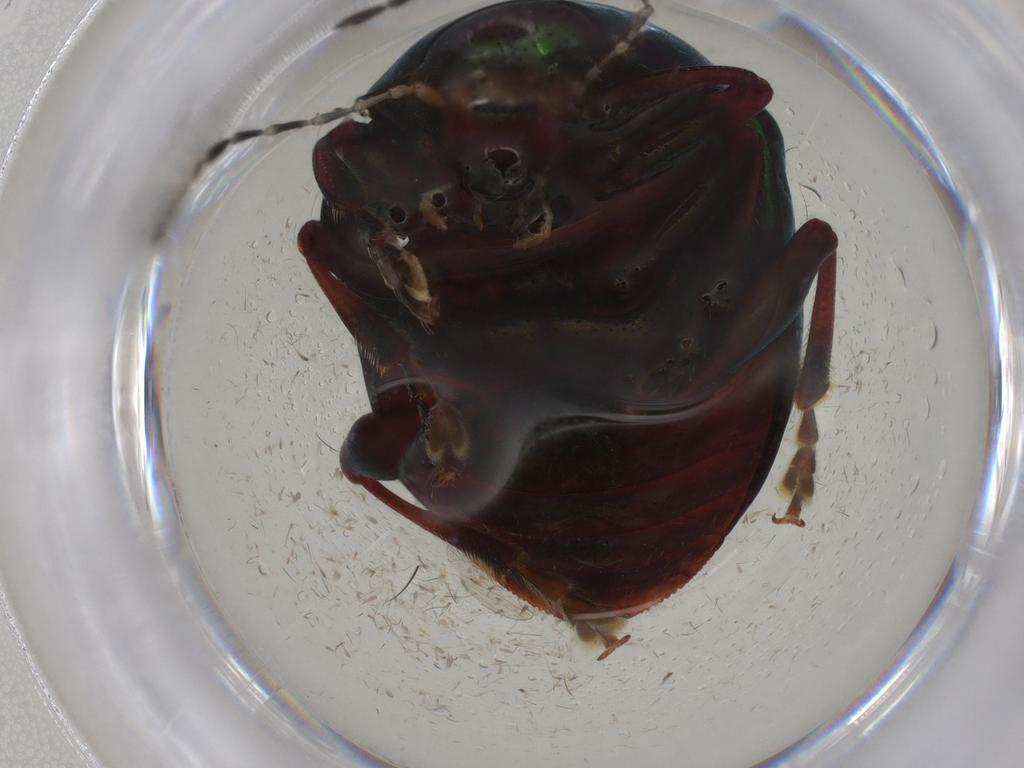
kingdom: Animalia
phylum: Arthropoda
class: Insecta
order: Coleoptera
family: Chrysomelidae
